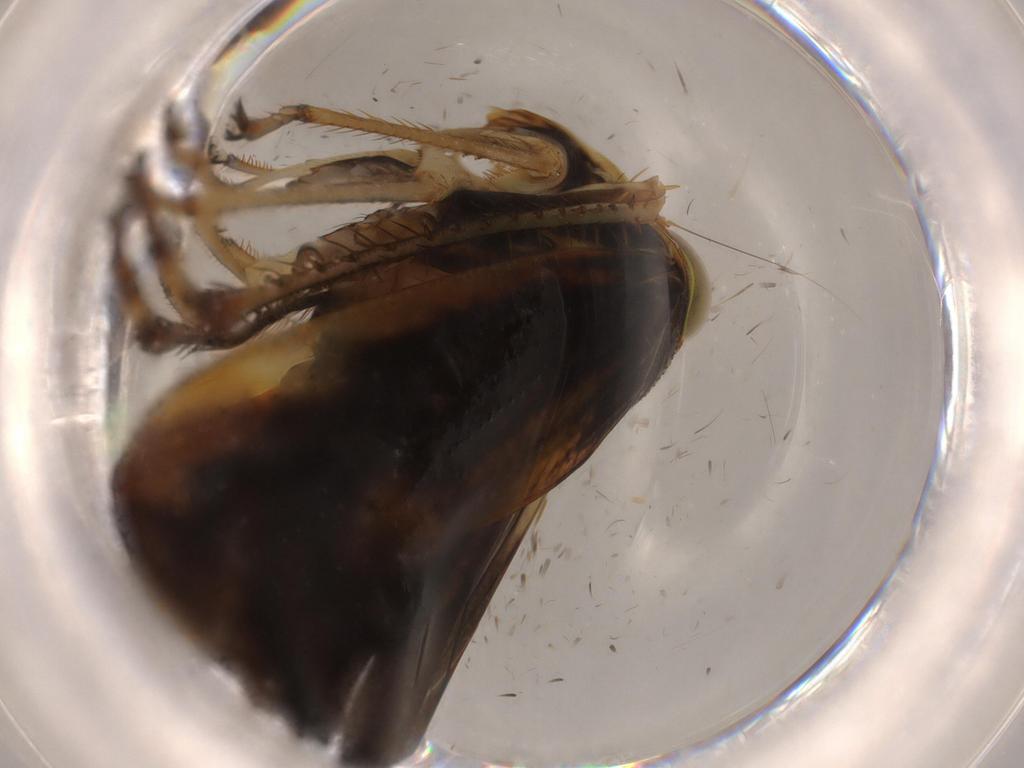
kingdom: Animalia
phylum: Arthropoda
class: Insecta
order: Hemiptera
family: Cicadellidae
